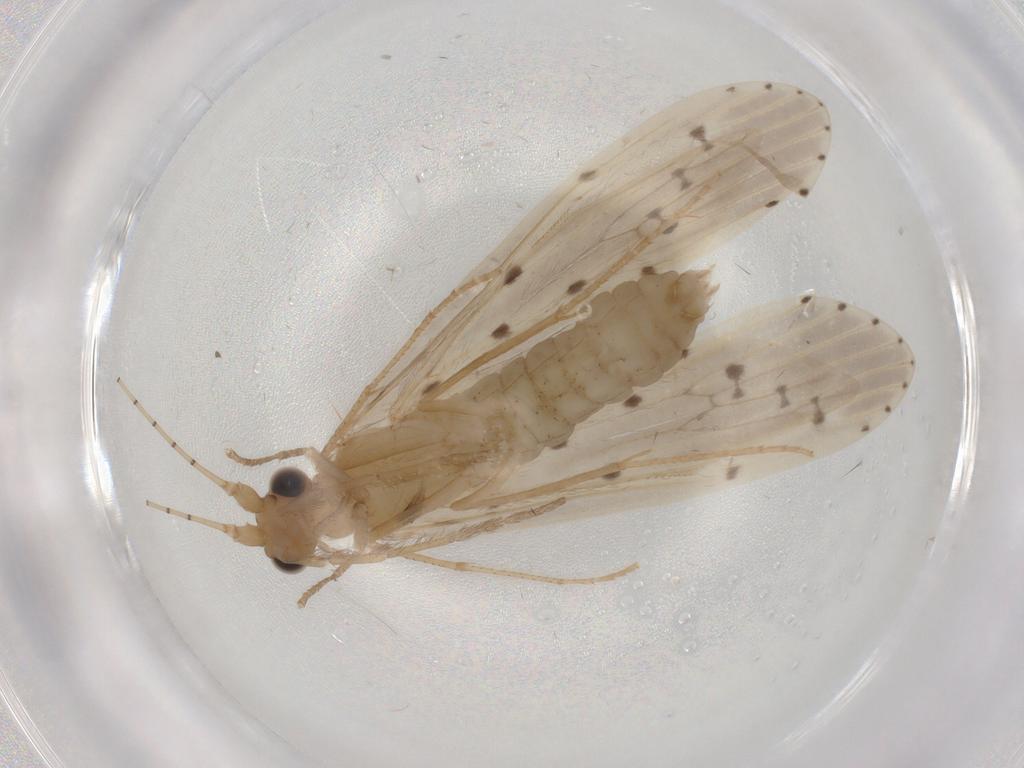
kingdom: Animalia
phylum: Arthropoda
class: Insecta
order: Trichoptera
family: Leptoceridae
